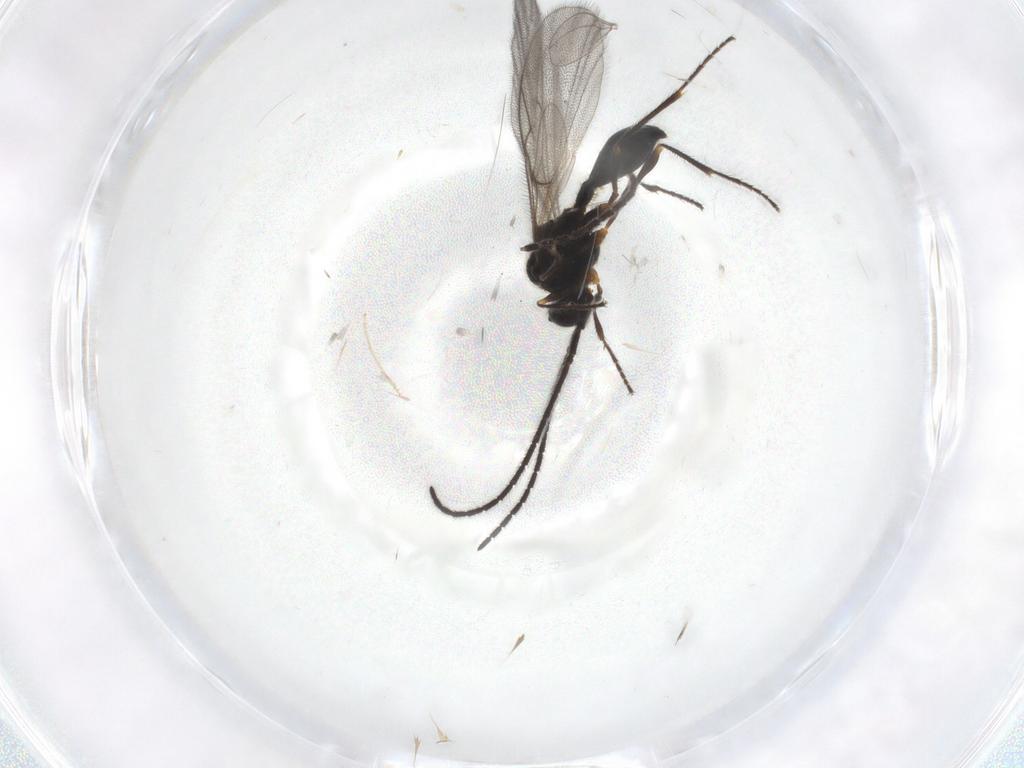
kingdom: Animalia
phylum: Arthropoda
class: Insecta
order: Hymenoptera
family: Diapriidae
